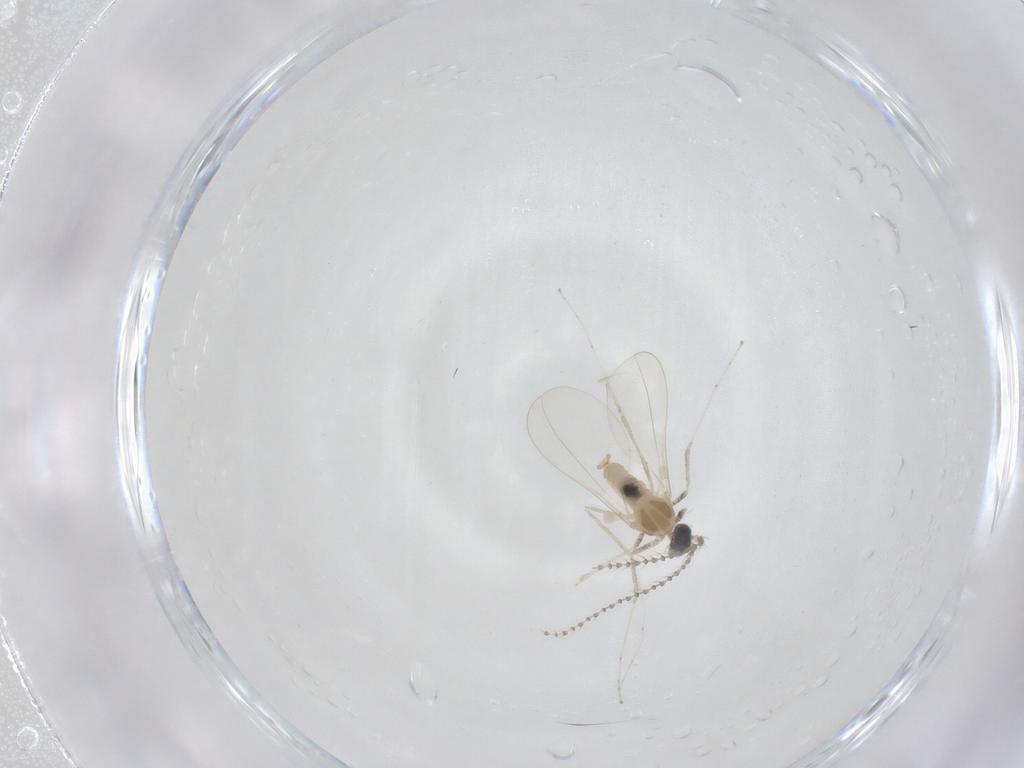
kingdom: Animalia
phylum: Arthropoda
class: Insecta
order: Diptera
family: Cecidomyiidae
